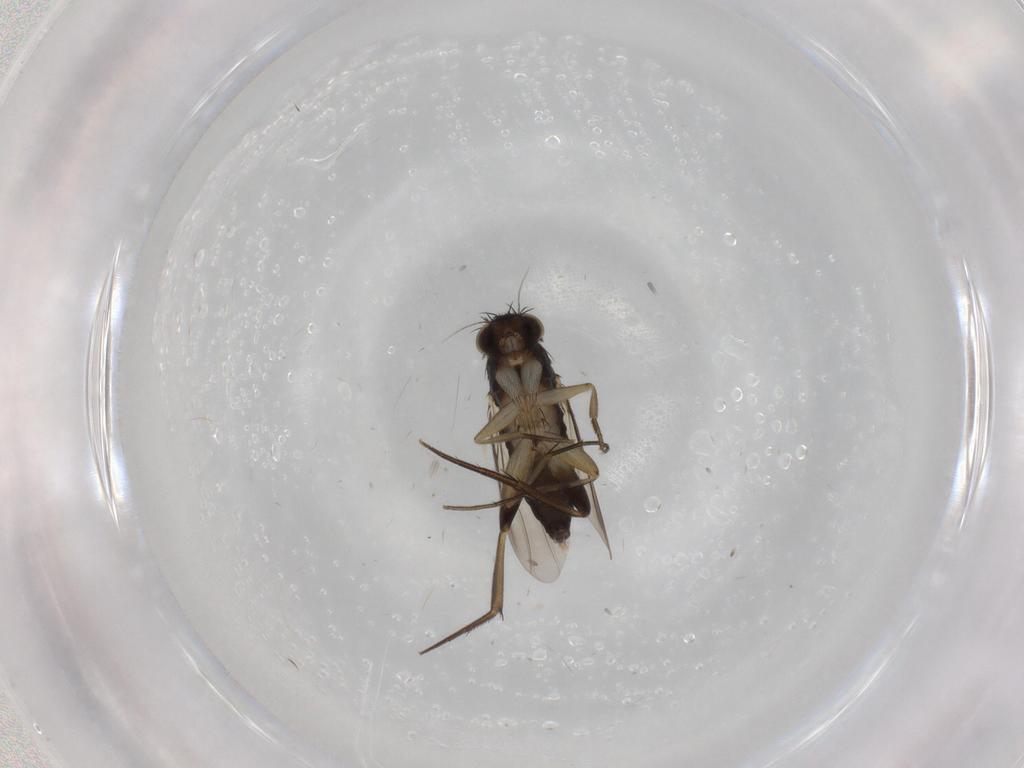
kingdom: Animalia
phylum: Arthropoda
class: Insecta
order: Diptera
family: Phoridae
